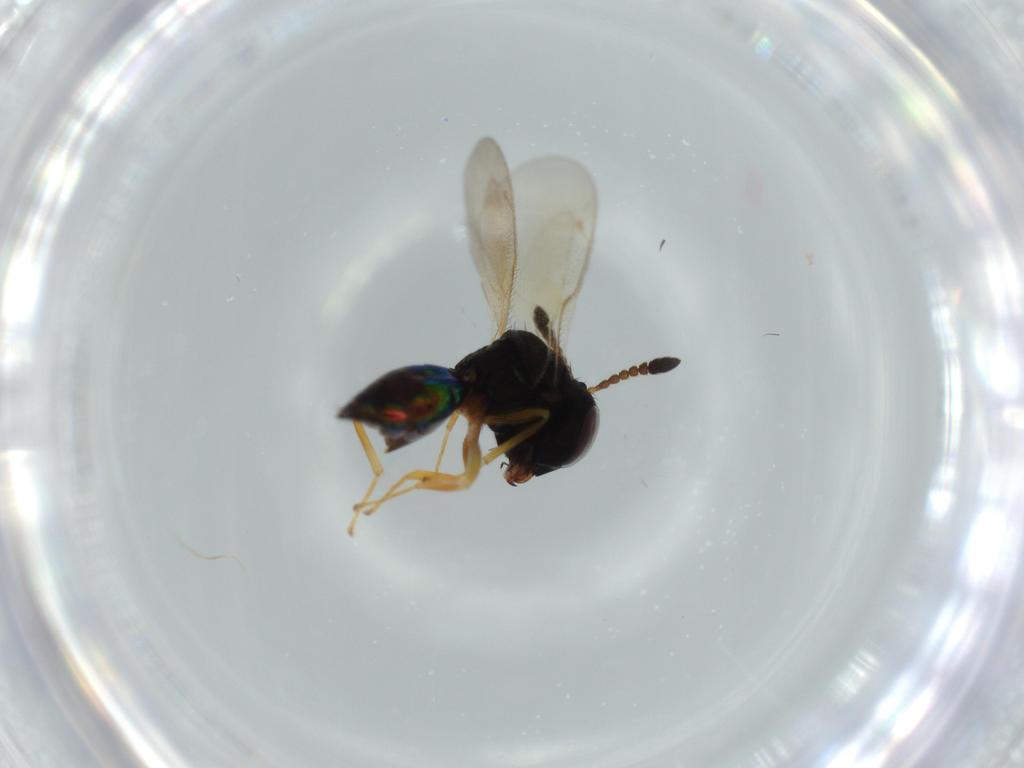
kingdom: Animalia
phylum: Arthropoda
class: Insecta
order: Hymenoptera
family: Pteromalidae
